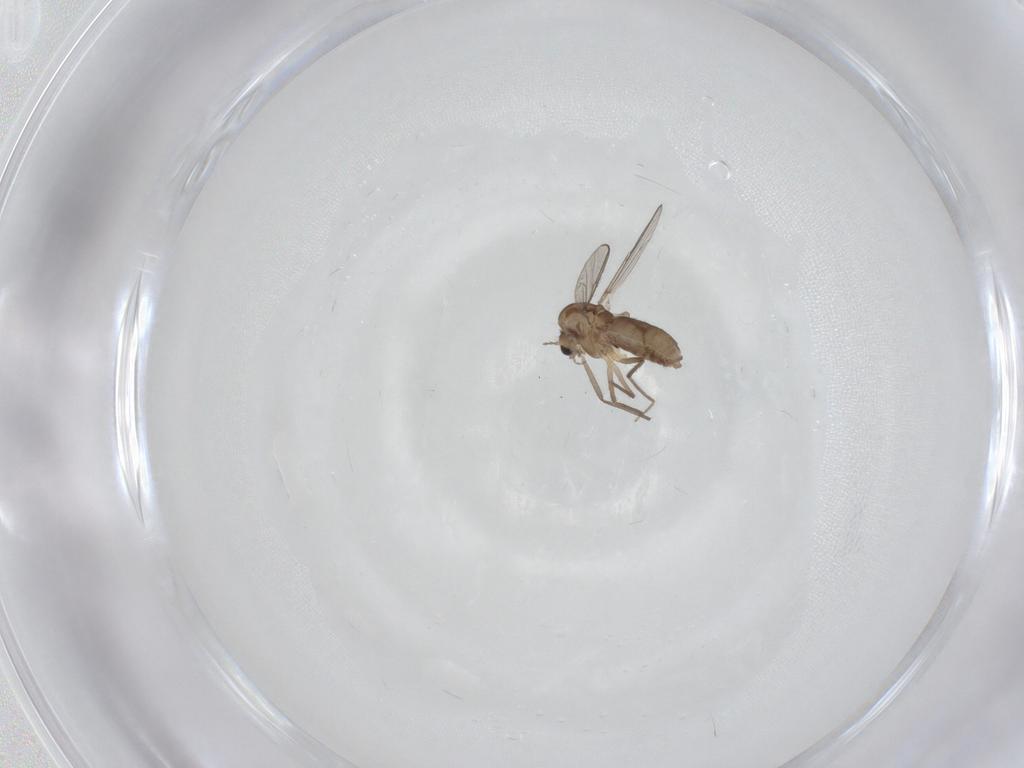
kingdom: Animalia
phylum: Arthropoda
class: Insecta
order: Diptera
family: Chironomidae
